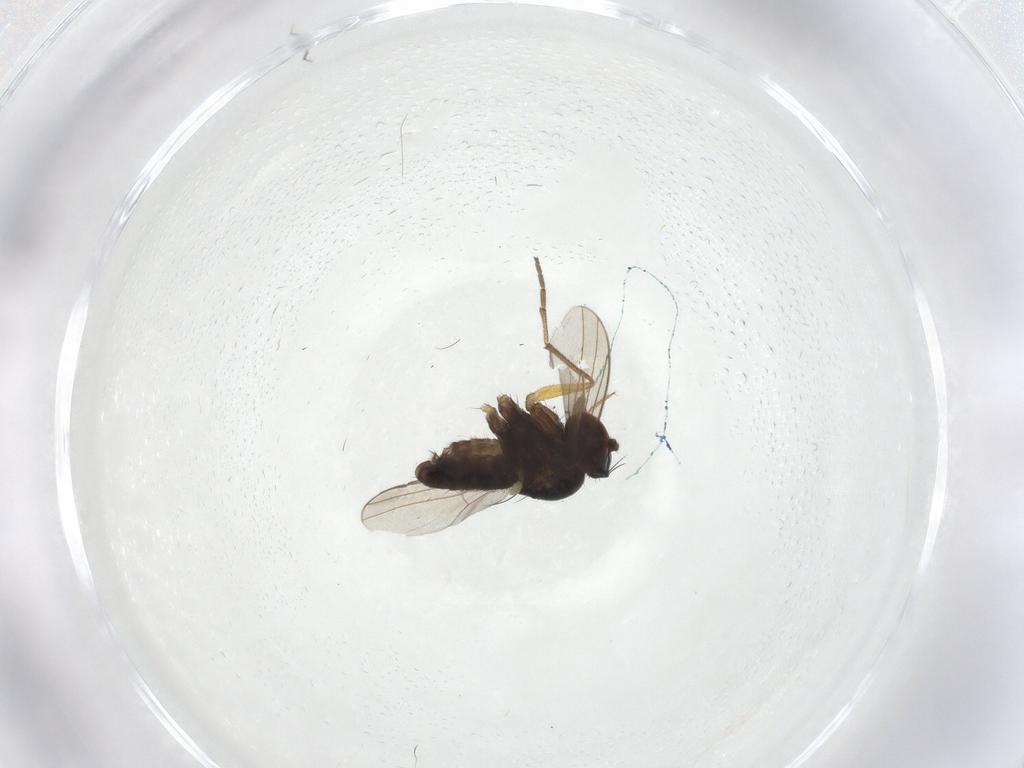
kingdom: Animalia
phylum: Arthropoda
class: Insecta
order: Diptera
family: Dolichopodidae
